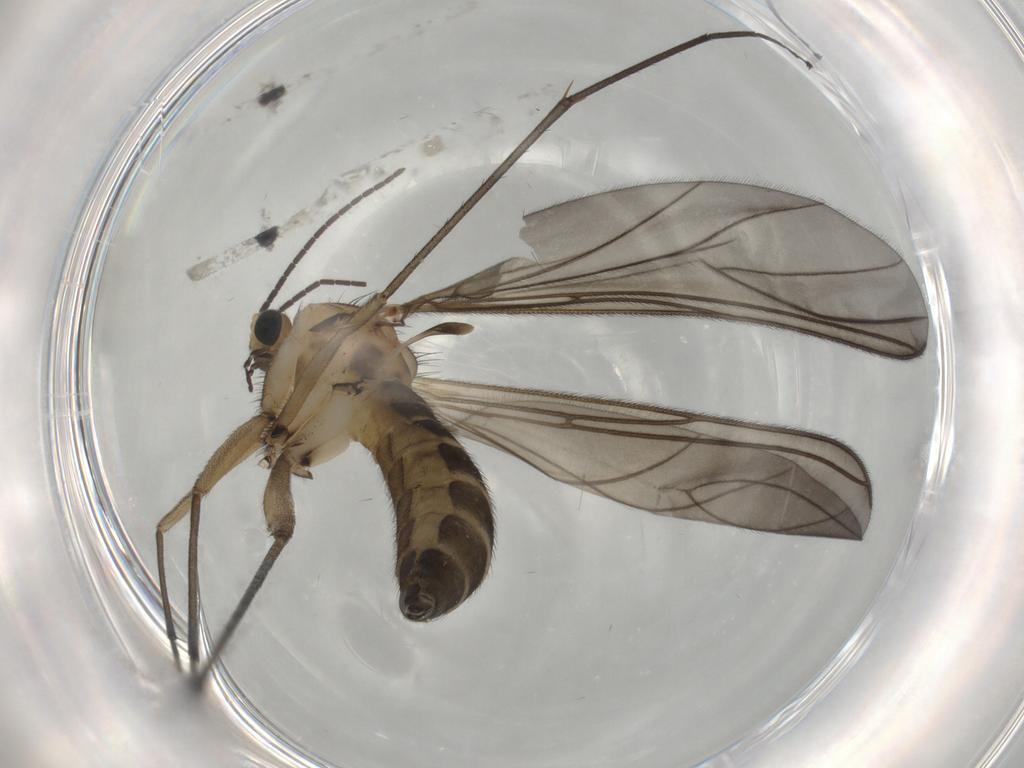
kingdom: Animalia
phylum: Arthropoda
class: Insecta
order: Diptera
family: Sciaridae
